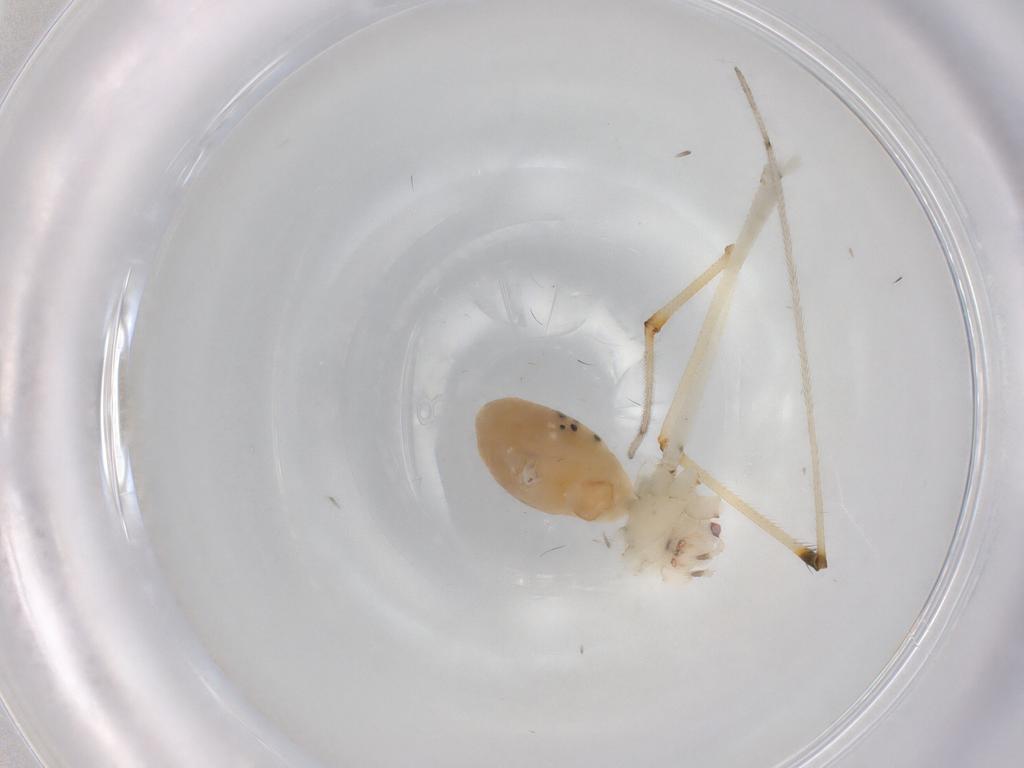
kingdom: Animalia
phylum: Arthropoda
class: Arachnida
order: Araneae
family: Pholcidae
